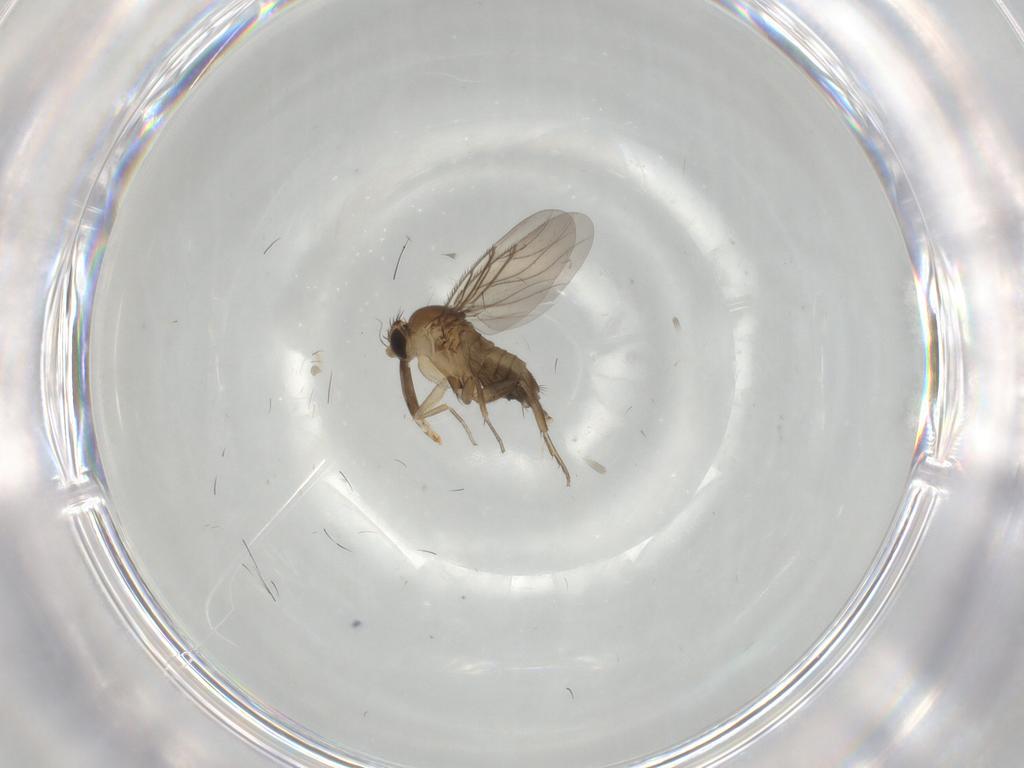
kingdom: Animalia
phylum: Arthropoda
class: Insecta
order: Diptera
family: Phoridae
